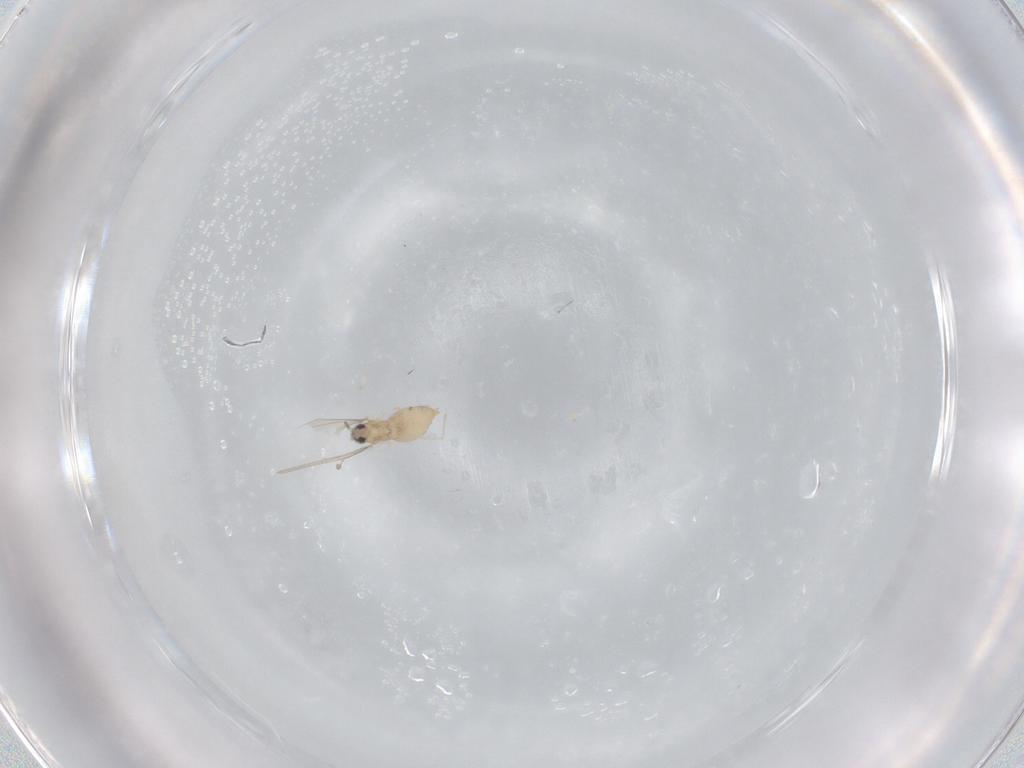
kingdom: Animalia
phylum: Arthropoda
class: Insecta
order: Diptera
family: Cecidomyiidae
